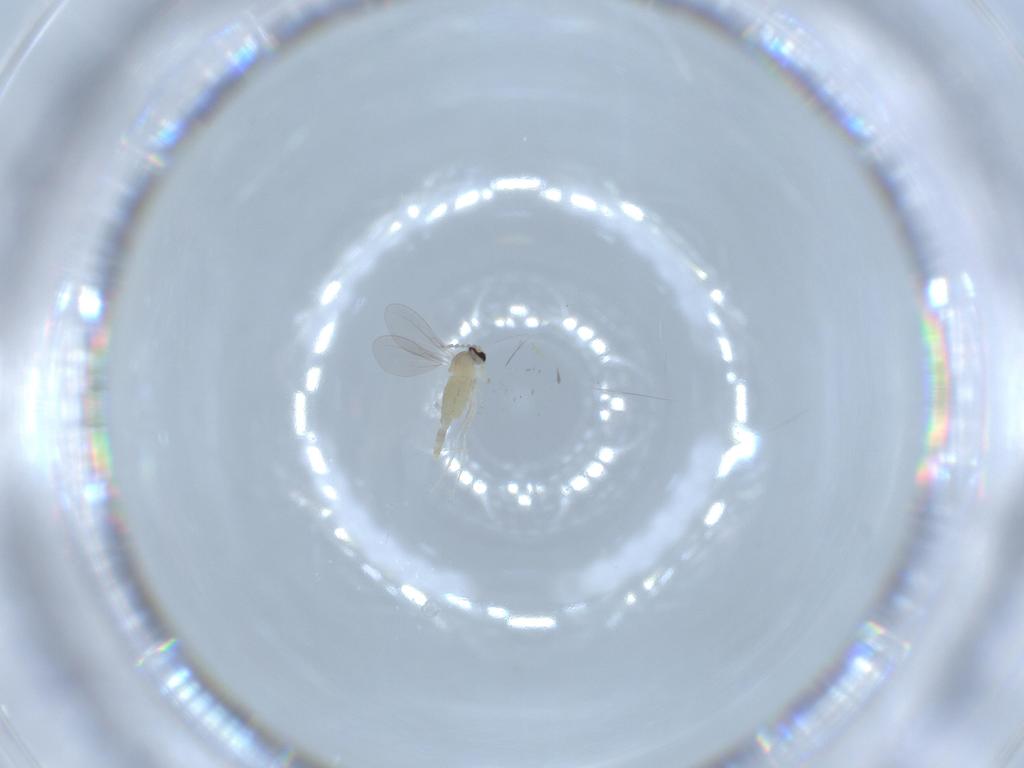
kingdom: Animalia
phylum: Arthropoda
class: Insecta
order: Diptera
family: Cecidomyiidae
